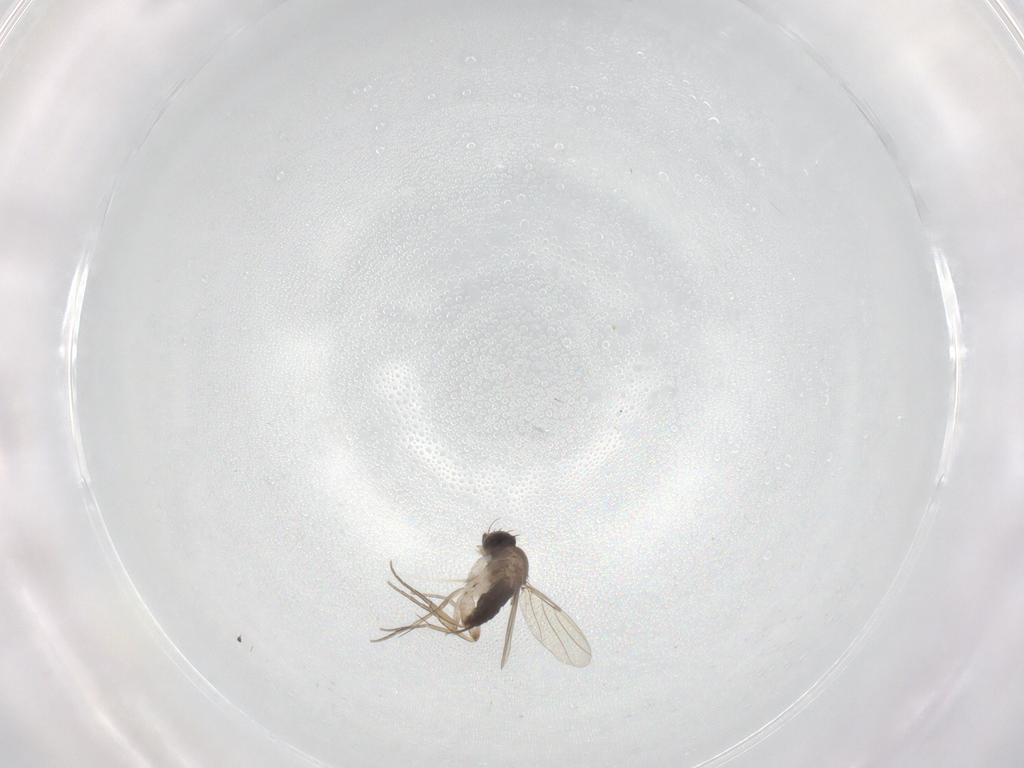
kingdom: Animalia
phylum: Arthropoda
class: Insecta
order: Diptera
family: Phoridae
